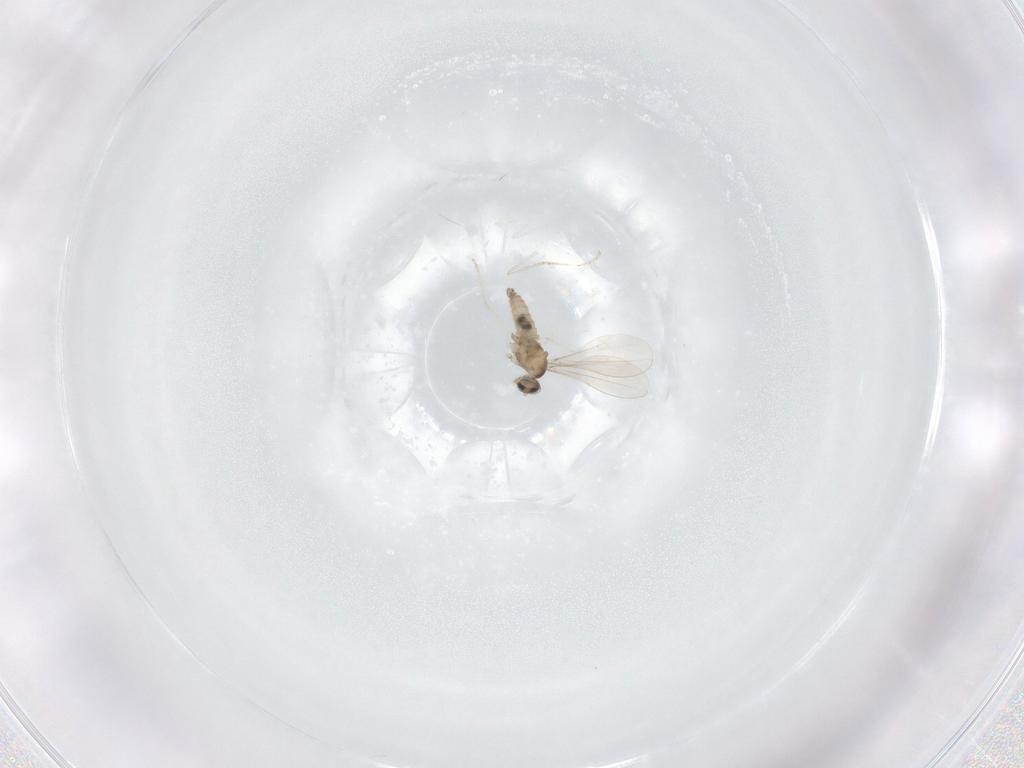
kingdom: Animalia
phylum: Arthropoda
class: Insecta
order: Diptera
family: Cecidomyiidae
